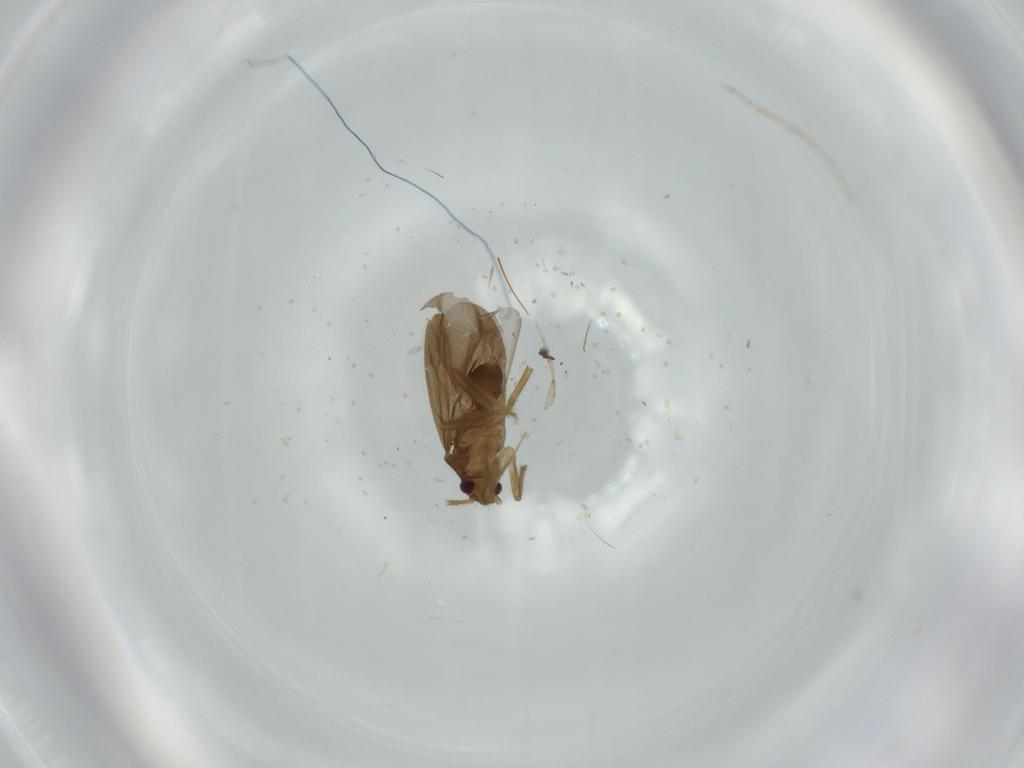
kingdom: Animalia
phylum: Arthropoda
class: Insecta
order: Hemiptera
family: Ceratocombidae
